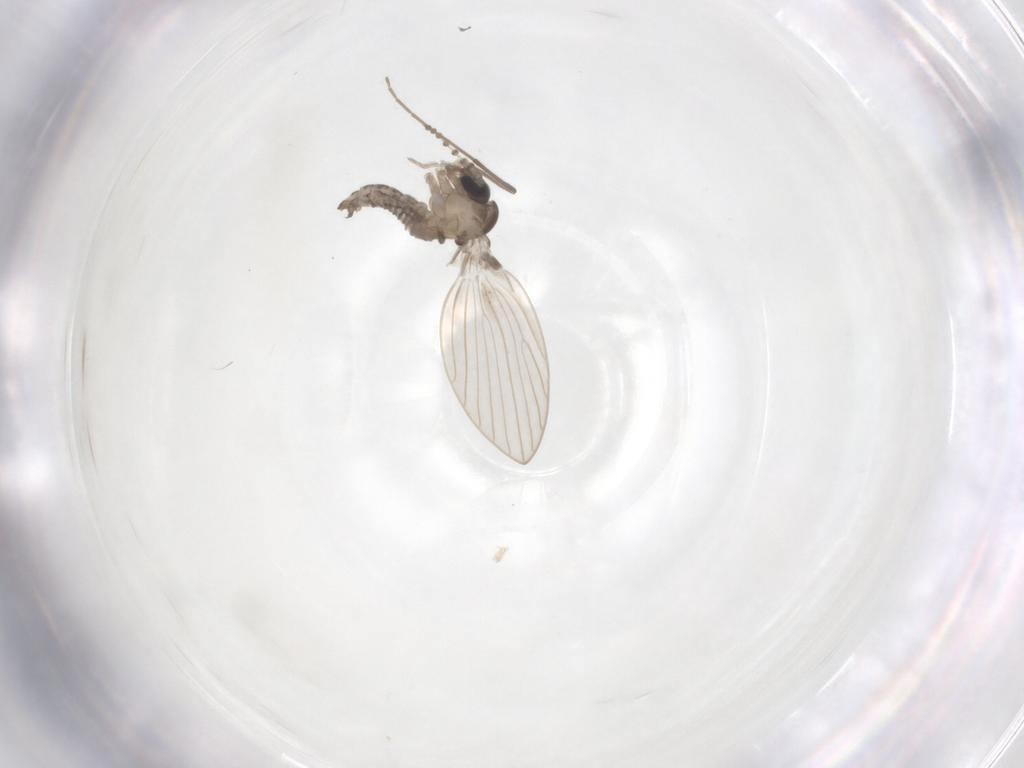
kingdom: Animalia
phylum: Arthropoda
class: Insecta
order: Diptera
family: Psychodidae
